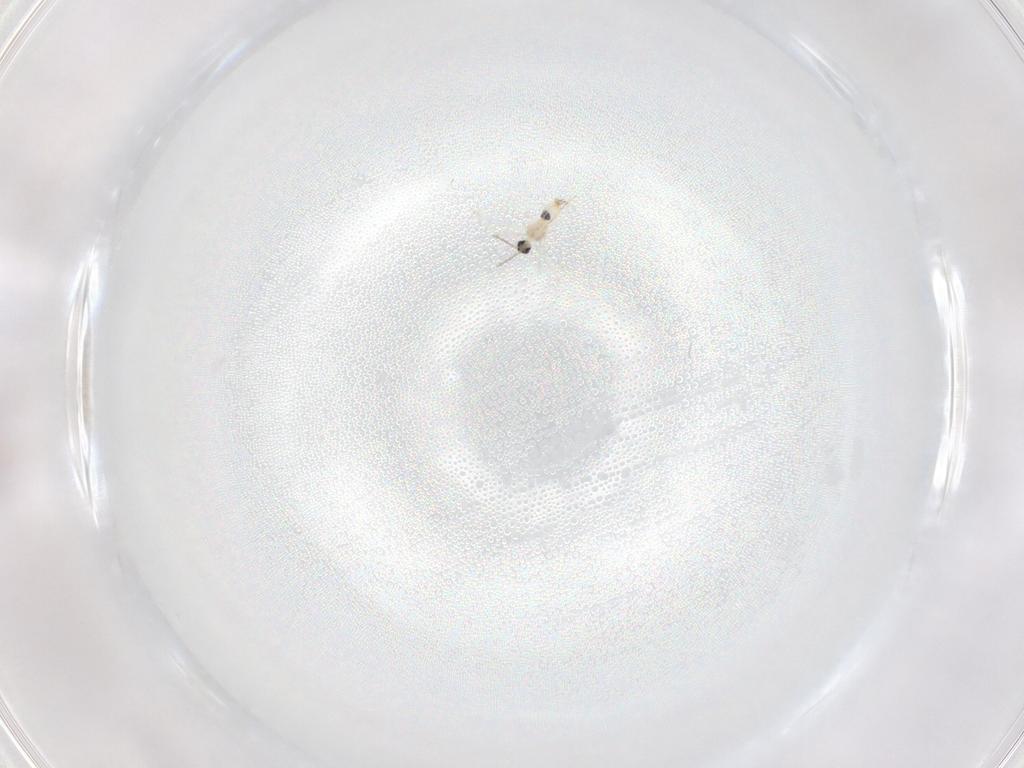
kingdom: Animalia
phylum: Arthropoda
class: Insecta
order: Diptera
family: Cecidomyiidae
